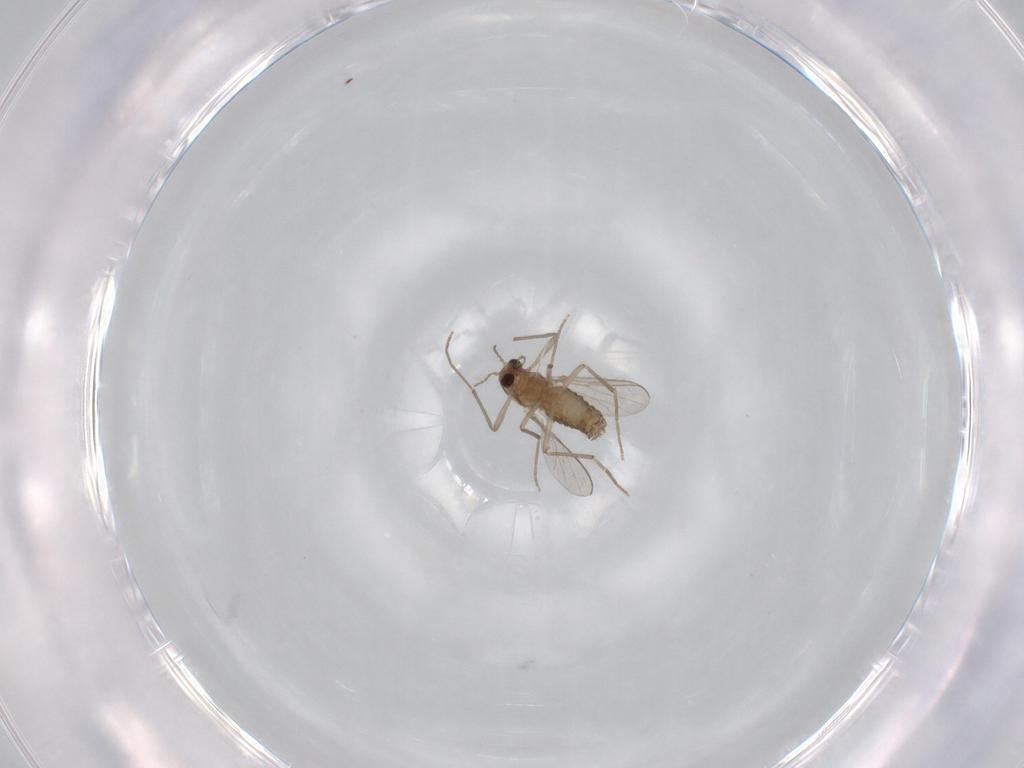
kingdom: Animalia
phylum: Arthropoda
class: Insecta
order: Diptera
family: Chironomidae
